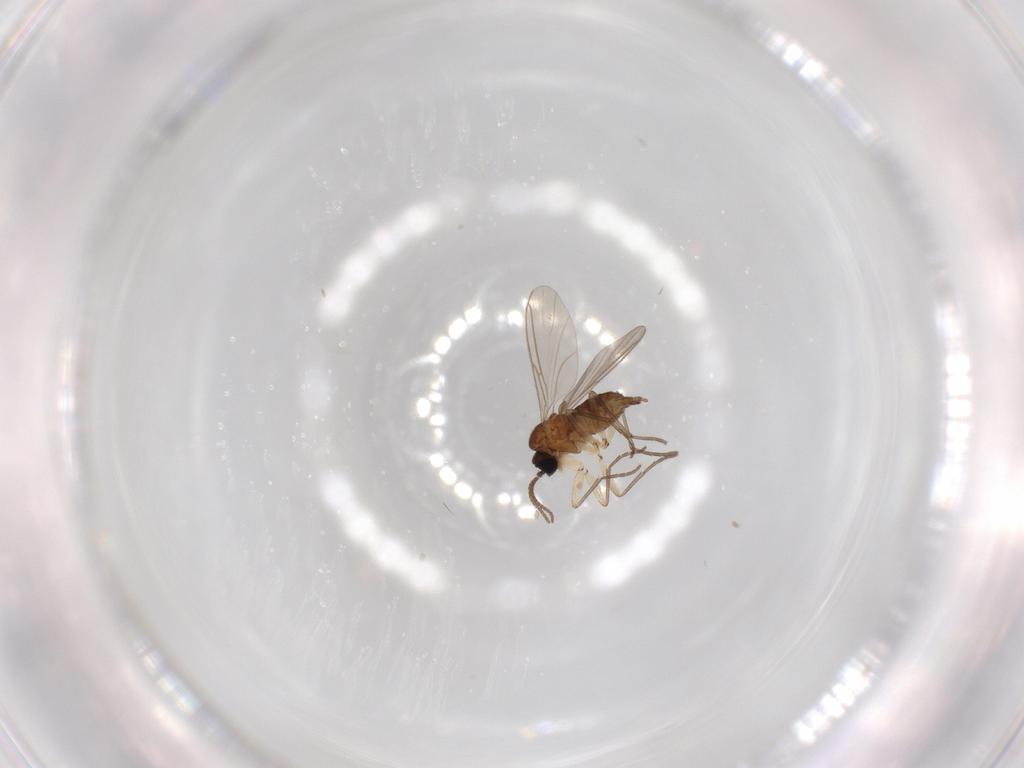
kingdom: Animalia
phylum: Arthropoda
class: Insecta
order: Diptera
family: Sciaridae
